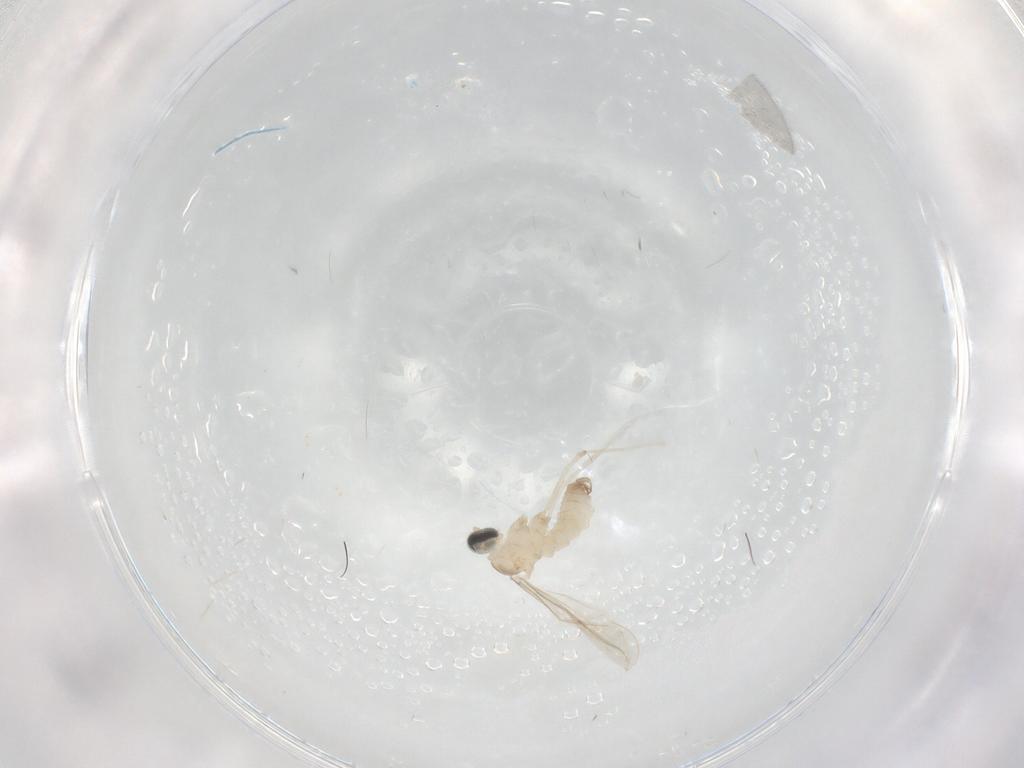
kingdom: Animalia
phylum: Arthropoda
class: Insecta
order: Diptera
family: Cecidomyiidae
